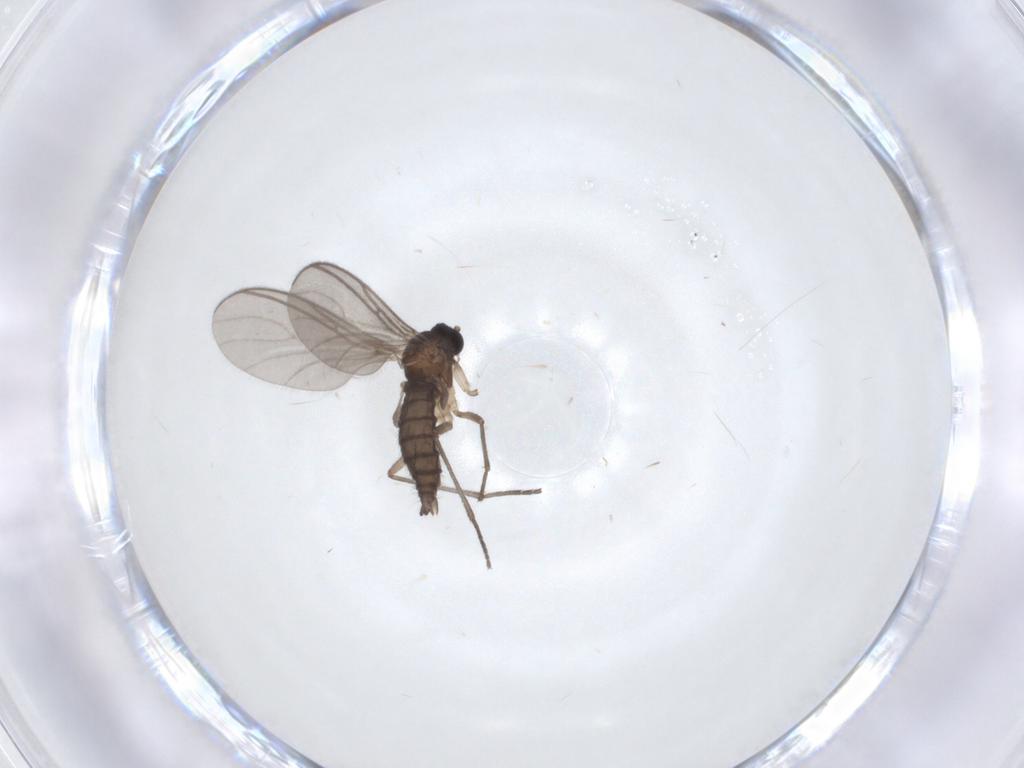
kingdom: Animalia
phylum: Arthropoda
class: Insecta
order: Diptera
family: Sciaridae
